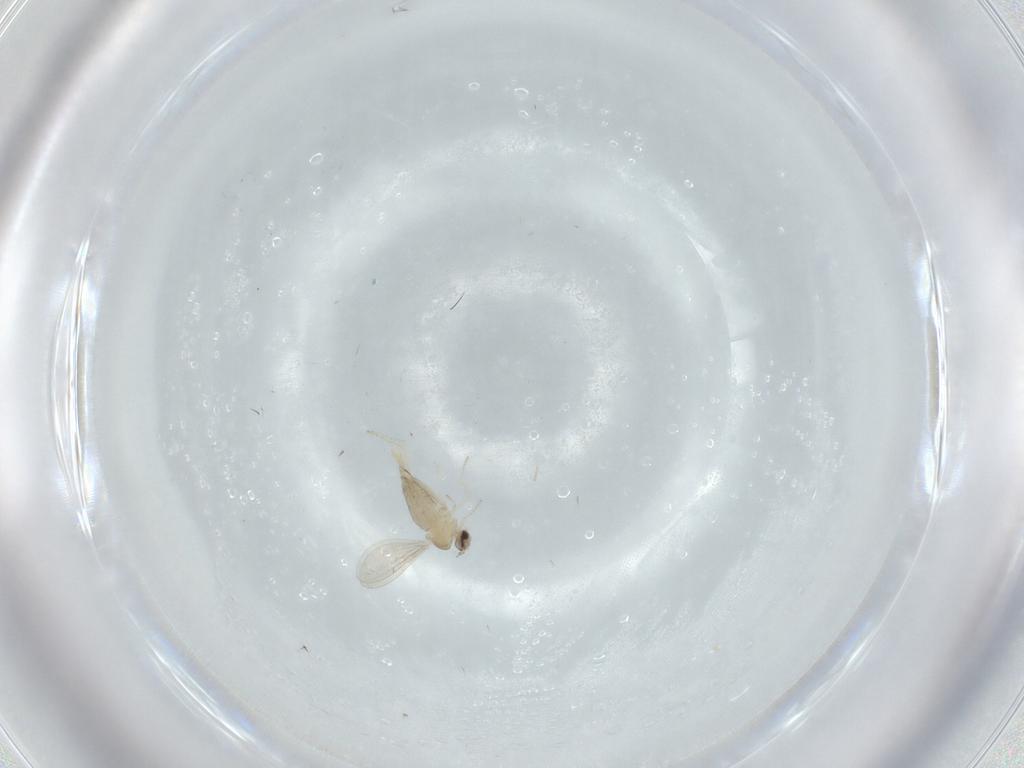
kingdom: Animalia
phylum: Arthropoda
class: Insecta
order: Diptera
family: Cecidomyiidae
